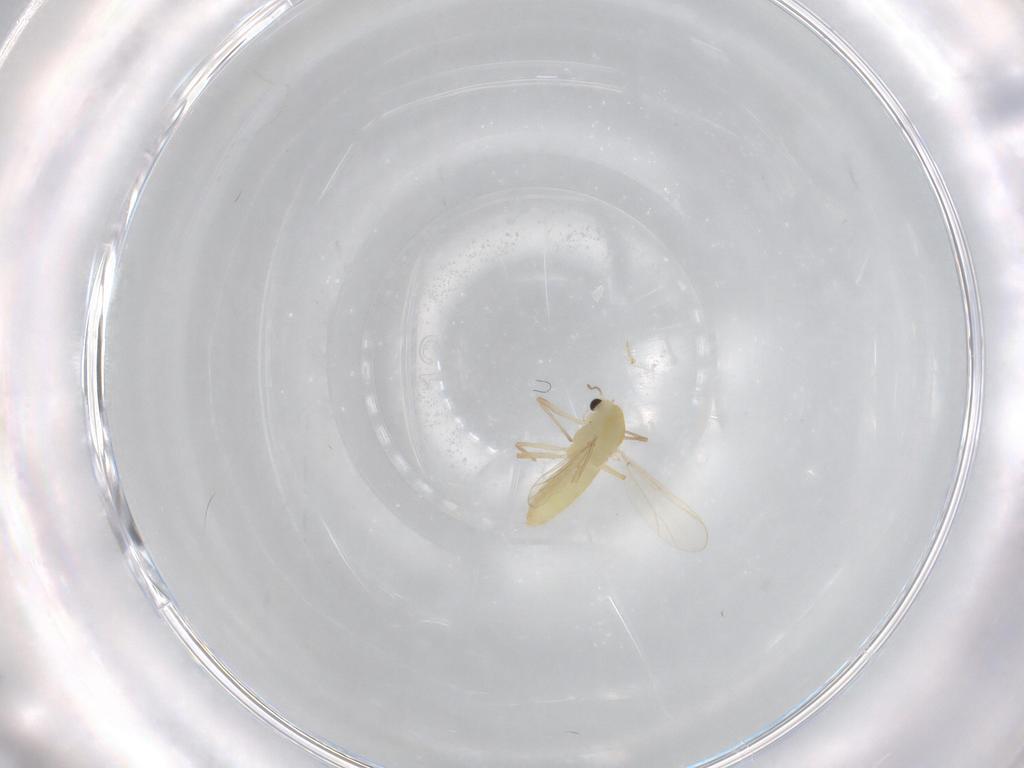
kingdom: Animalia
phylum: Arthropoda
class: Insecta
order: Diptera
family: Chironomidae
